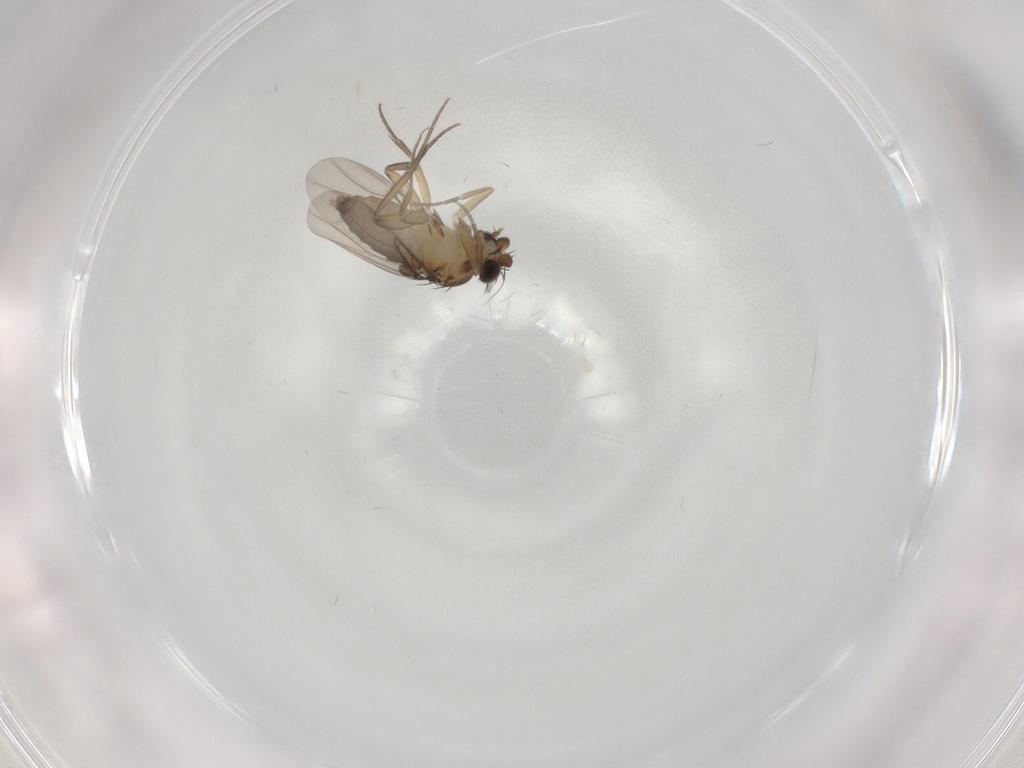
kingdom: Animalia
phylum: Arthropoda
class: Insecta
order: Diptera
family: Phoridae
